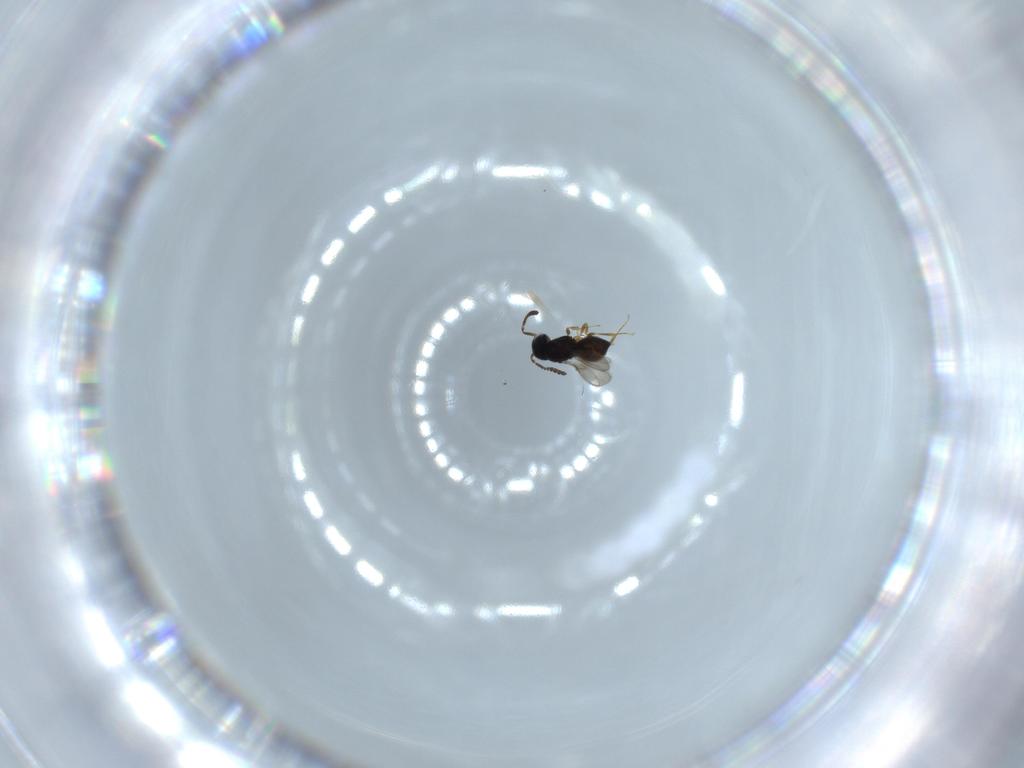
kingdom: Animalia
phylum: Arthropoda
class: Insecta
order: Hymenoptera
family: Scelionidae
